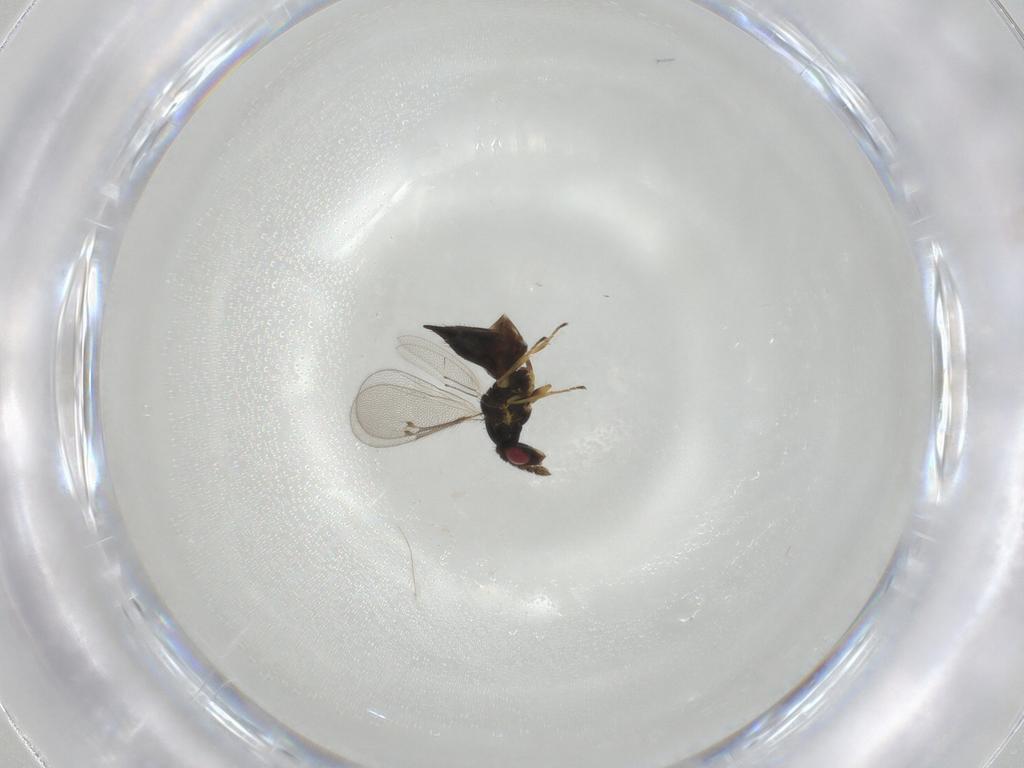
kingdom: Animalia
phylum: Arthropoda
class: Insecta
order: Hymenoptera
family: Eulophidae
